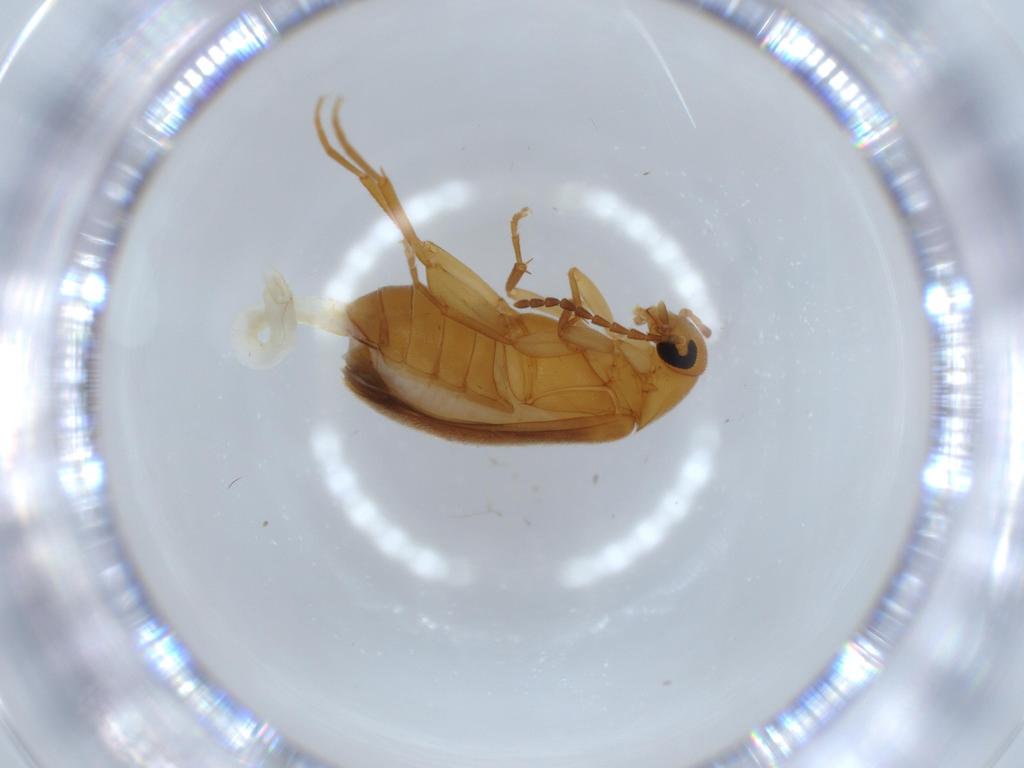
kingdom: Animalia
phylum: Arthropoda
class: Insecta
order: Coleoptera
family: Scraptiidae
